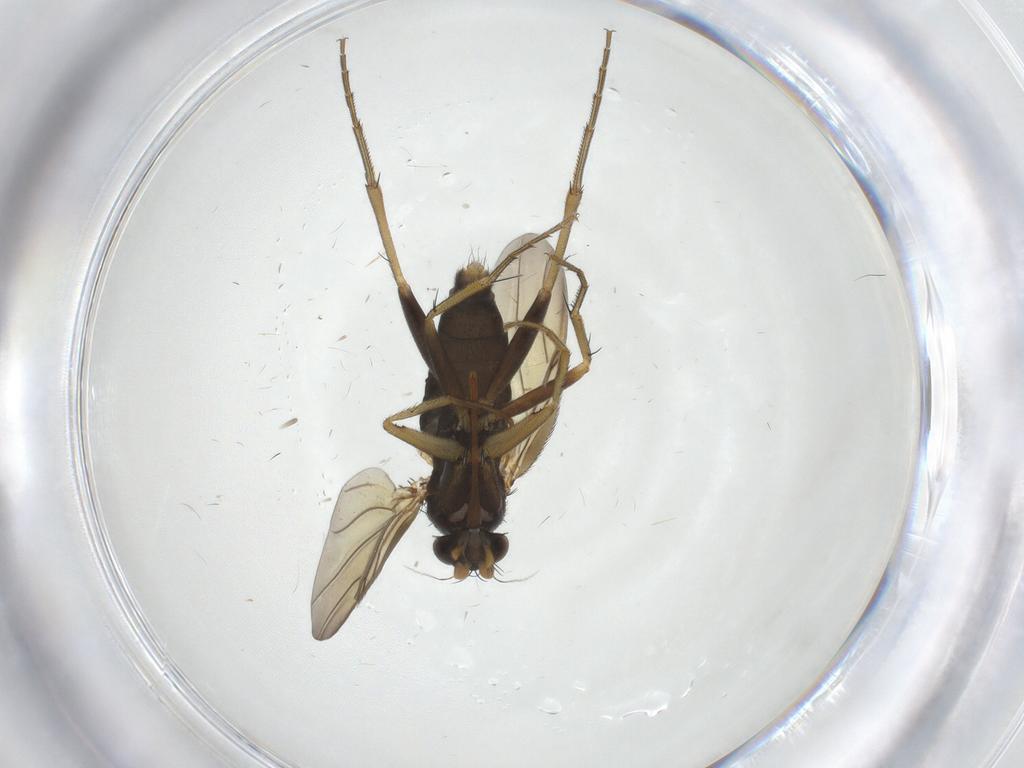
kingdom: Animalia
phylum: Arthropoda
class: Insecta
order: Diptera
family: Phoridae
